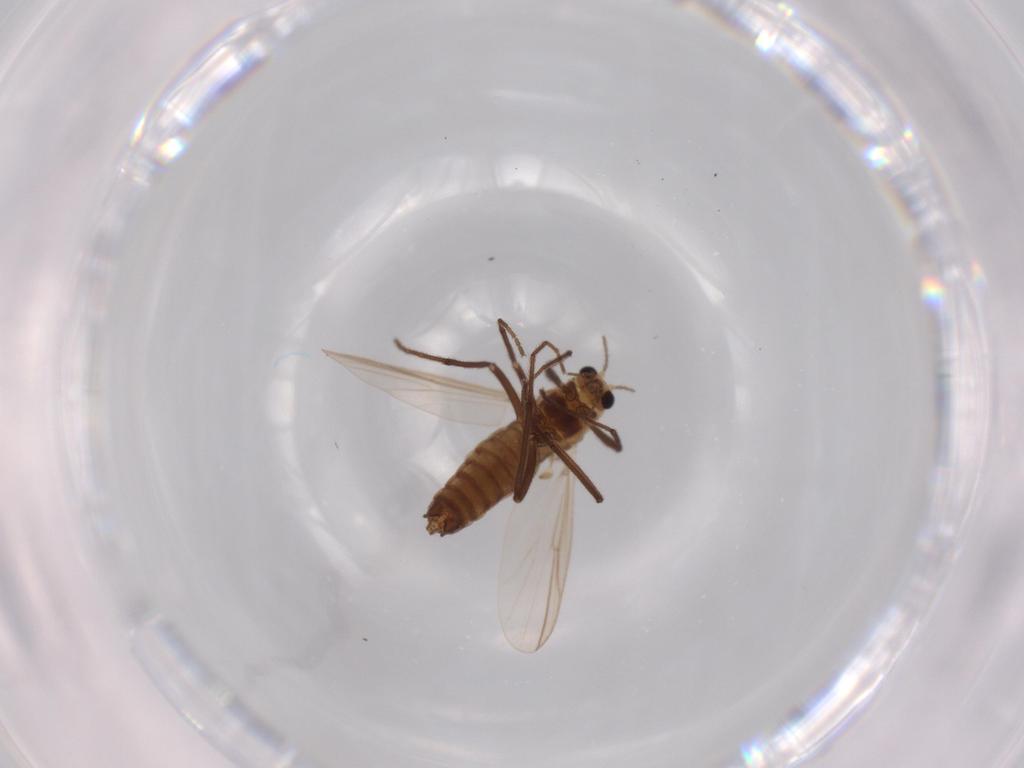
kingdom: Animalia
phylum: Arthropoda
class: Insecta
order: Diptera
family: Chironomidae
